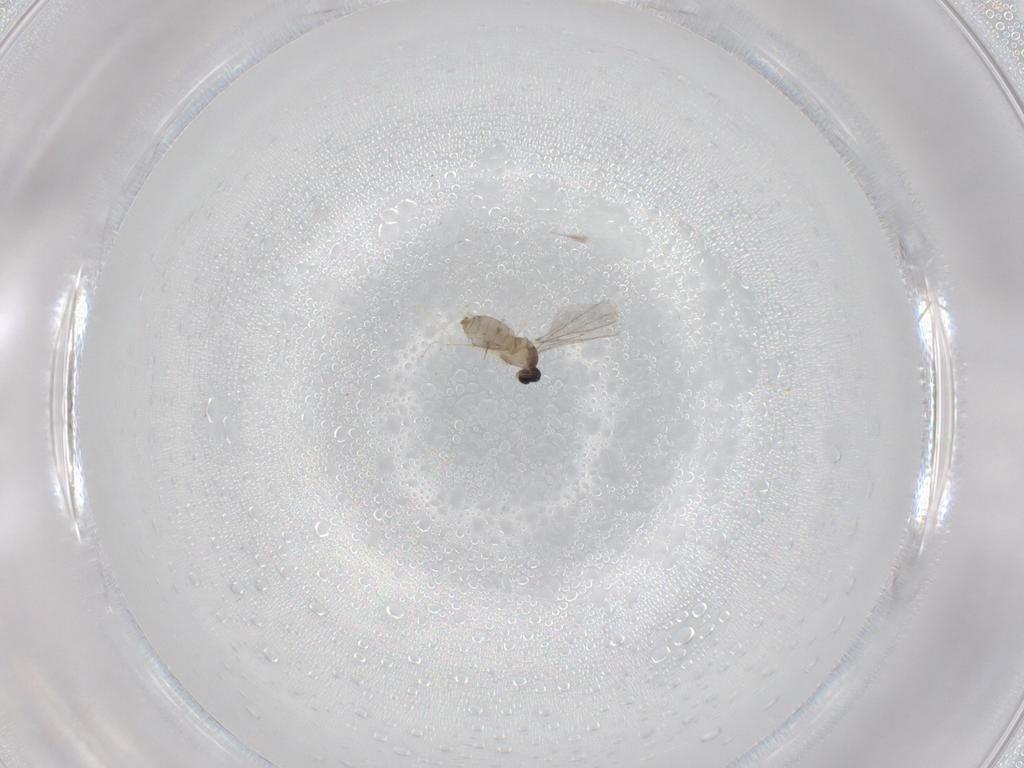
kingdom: Animalia
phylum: Arthropoda
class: Insecta
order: Diptera
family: Cecidomyiidae
